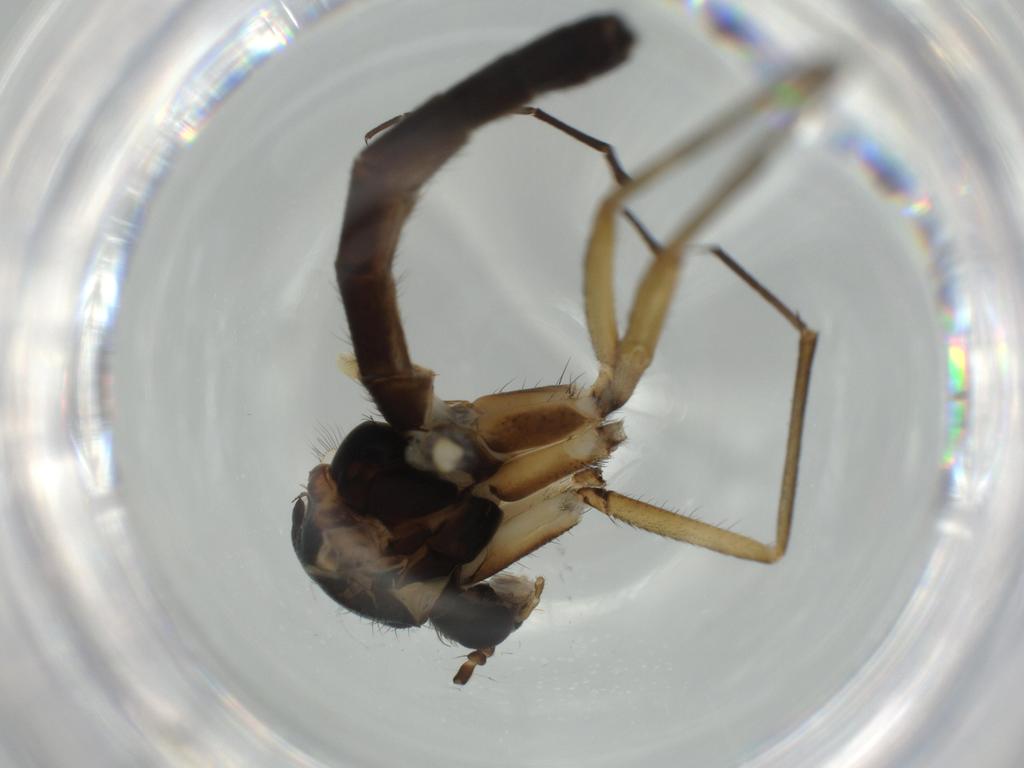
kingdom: Animalia
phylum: Arthropoda
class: Insecta
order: Diptera
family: Mycetophilidae
